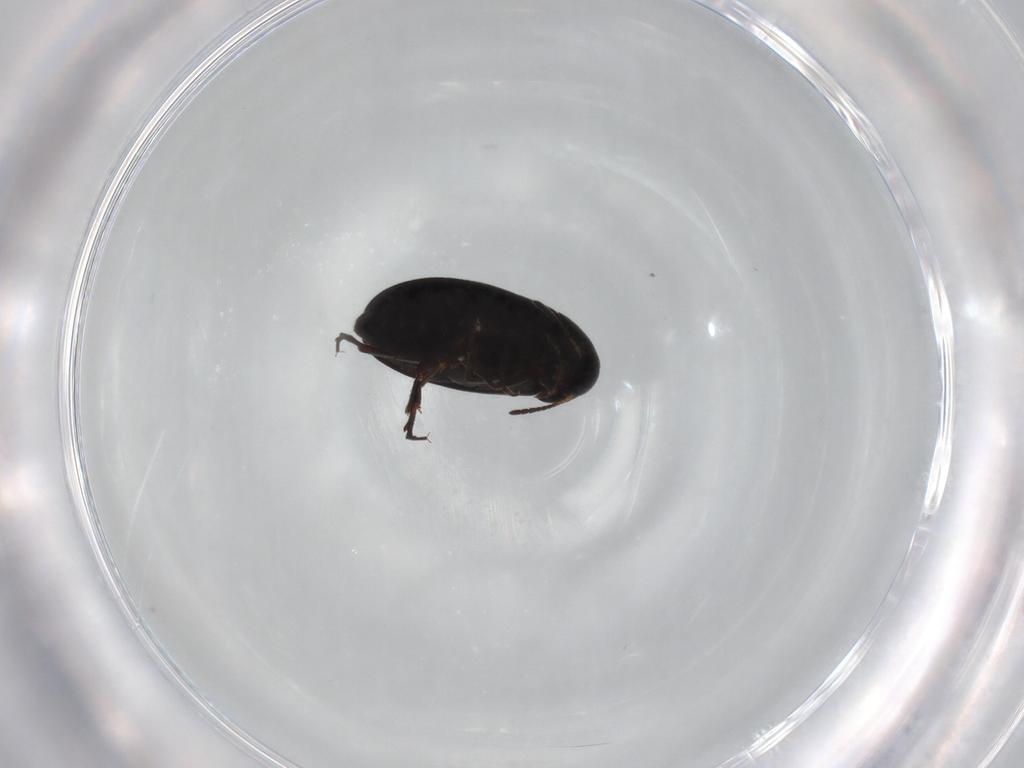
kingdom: Animalia
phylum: Arthropoda
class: Insecta
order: Coleoptera
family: Scraptiidae
